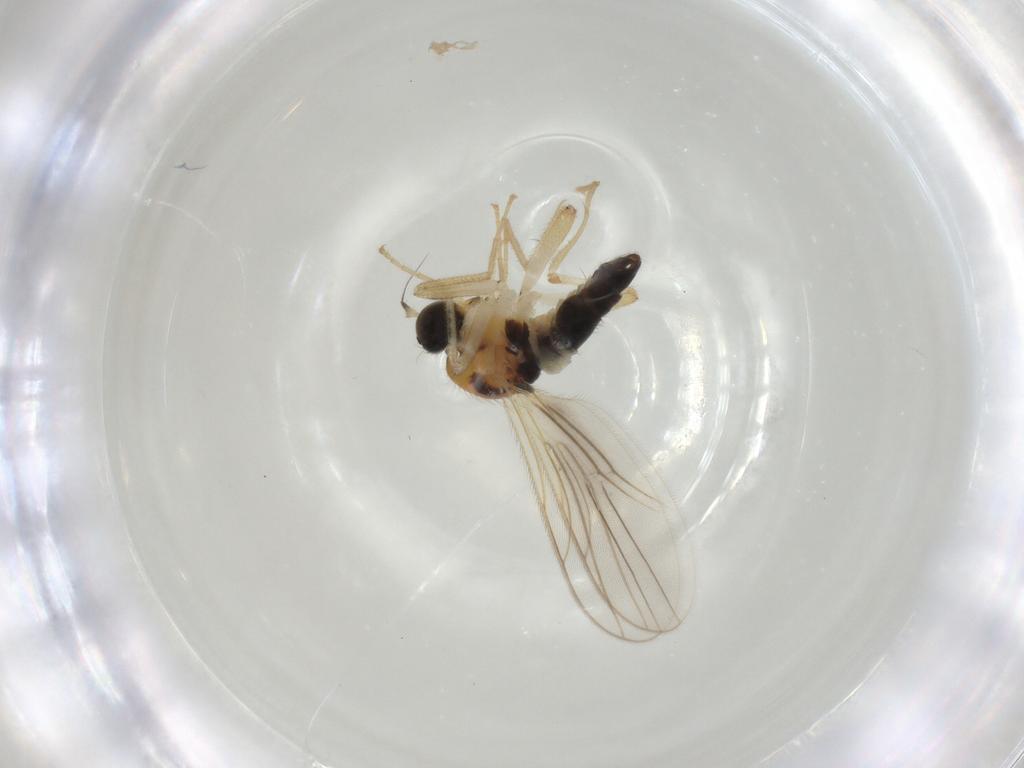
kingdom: Animalia
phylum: Arthropoda
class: Insecta
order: Diptera
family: Hybotidae
